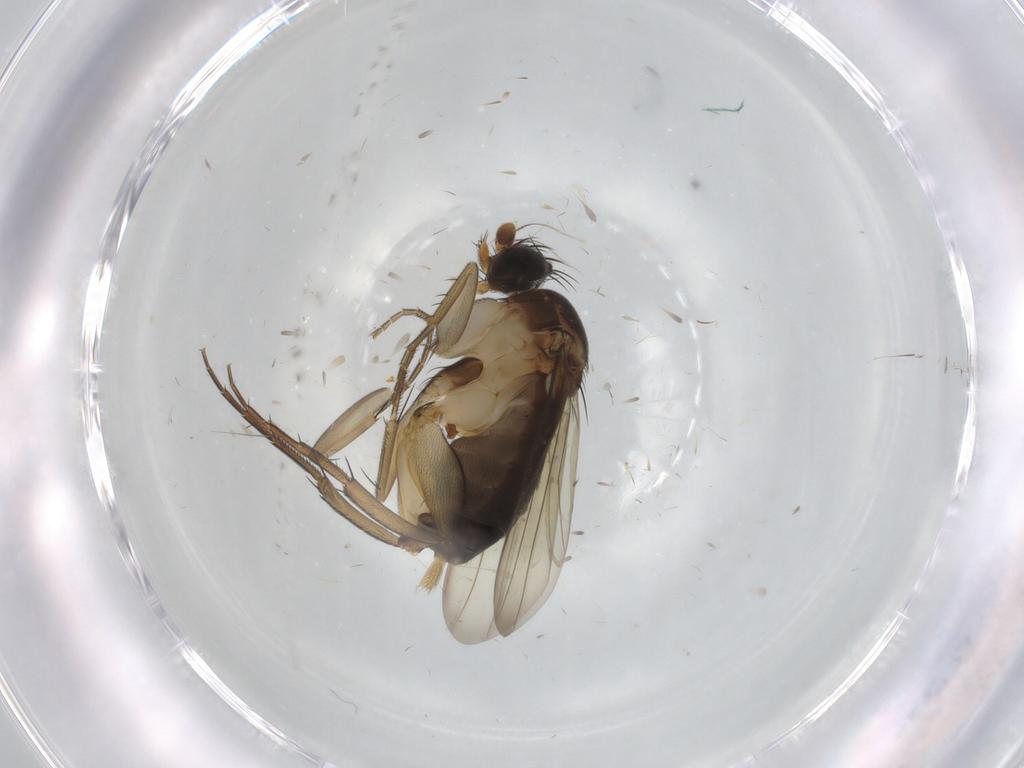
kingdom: Animalia
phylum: Arthropoda
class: Insecta
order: Diptera
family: Phoridae
